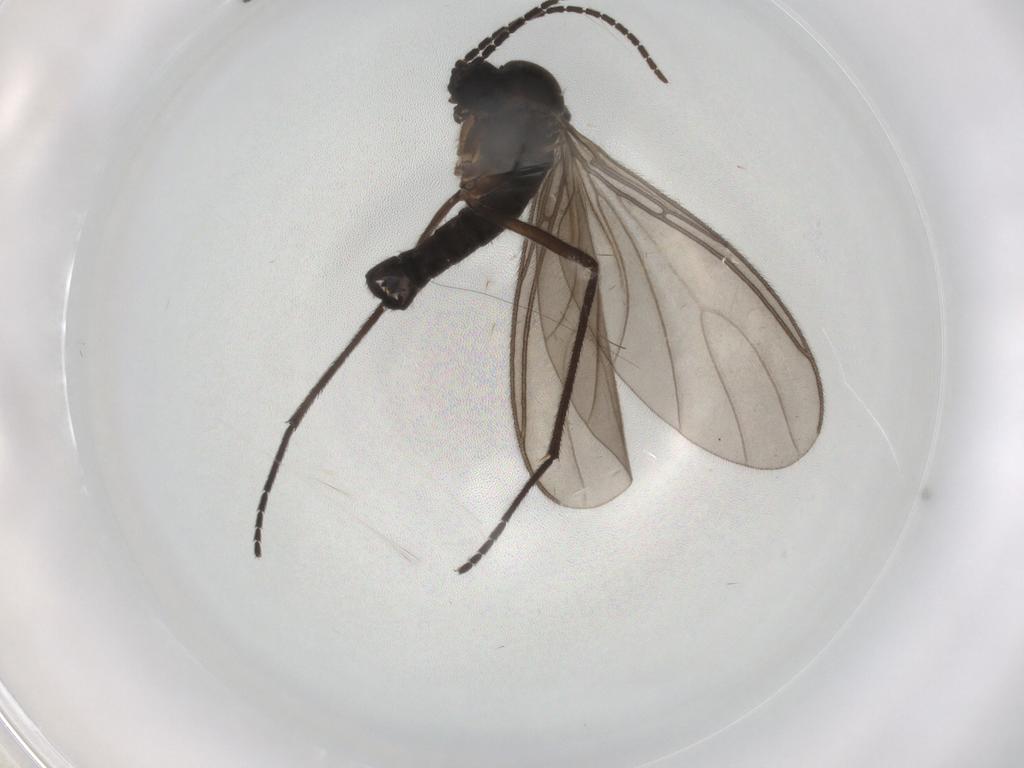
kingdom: Animalia
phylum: Arthropoda
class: Insecta
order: Diptera
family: Sciaridae
